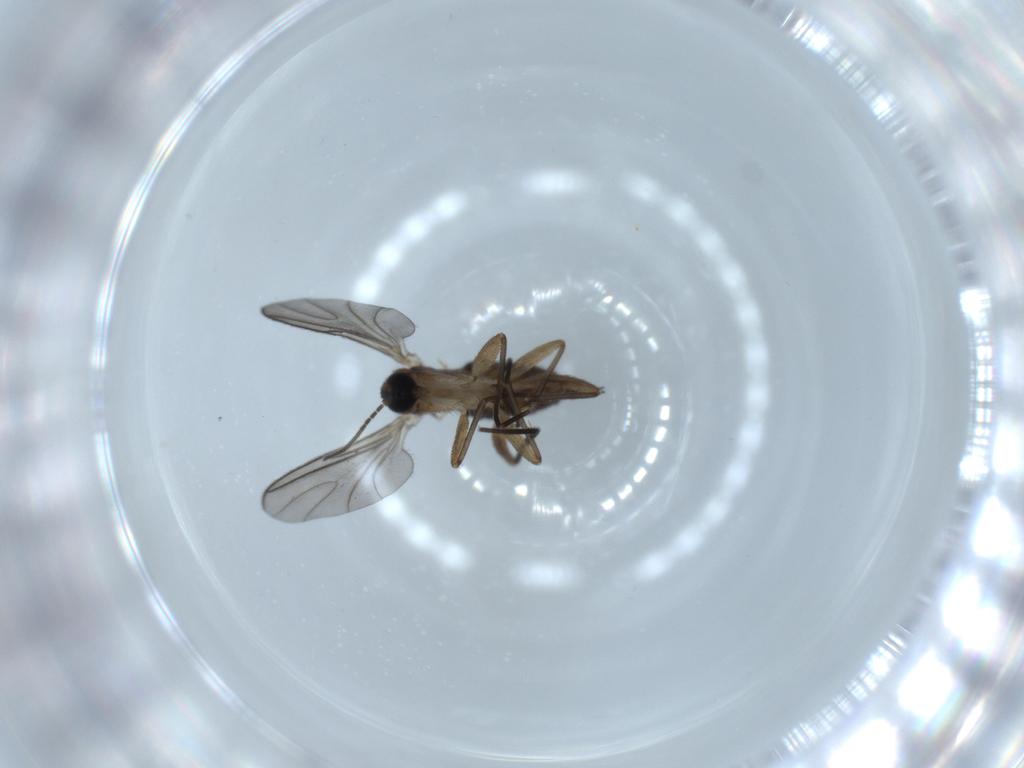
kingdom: Animalia
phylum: Arthropoda
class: Insecta
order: Diptera
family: Sciaridae
